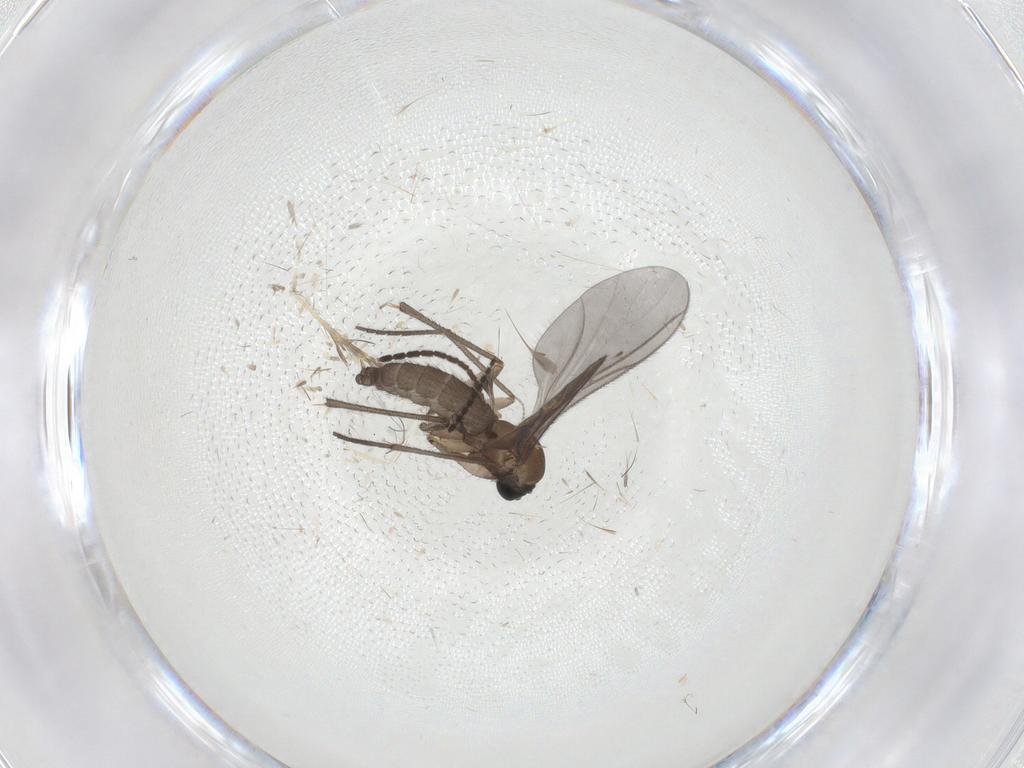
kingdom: Animalia
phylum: Arthropoda
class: Insecta
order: Diptera
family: Sciaridae
